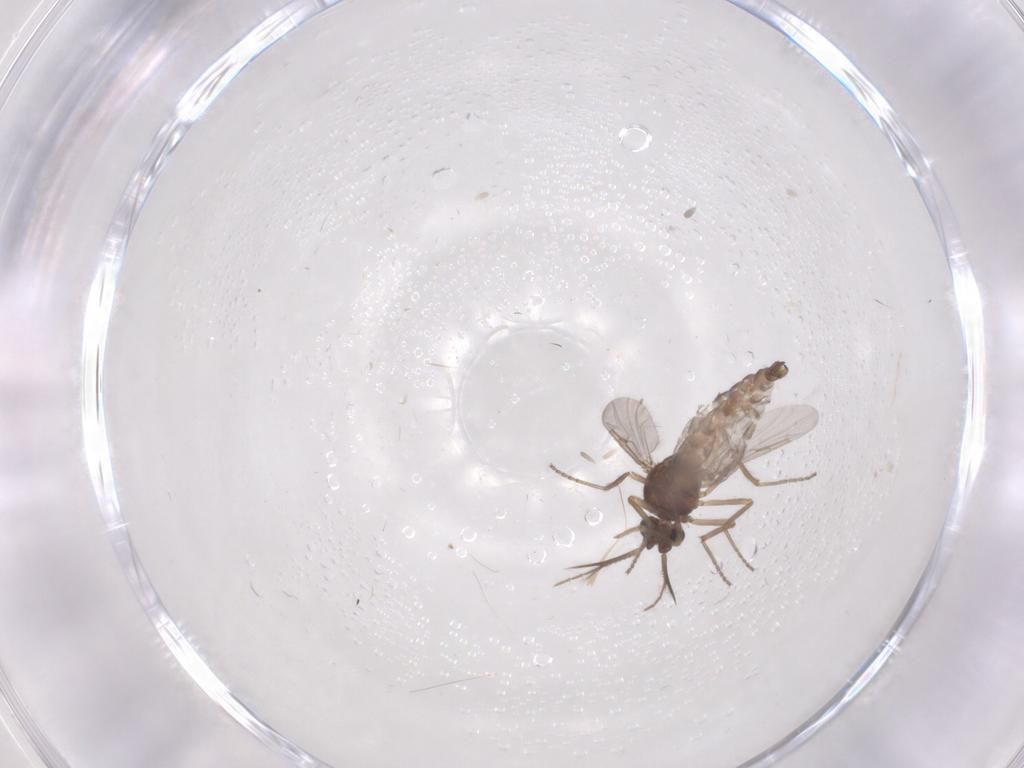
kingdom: Animalia
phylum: Arthropoda
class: Insecta
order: Diptera
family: Ceratopogonidae
